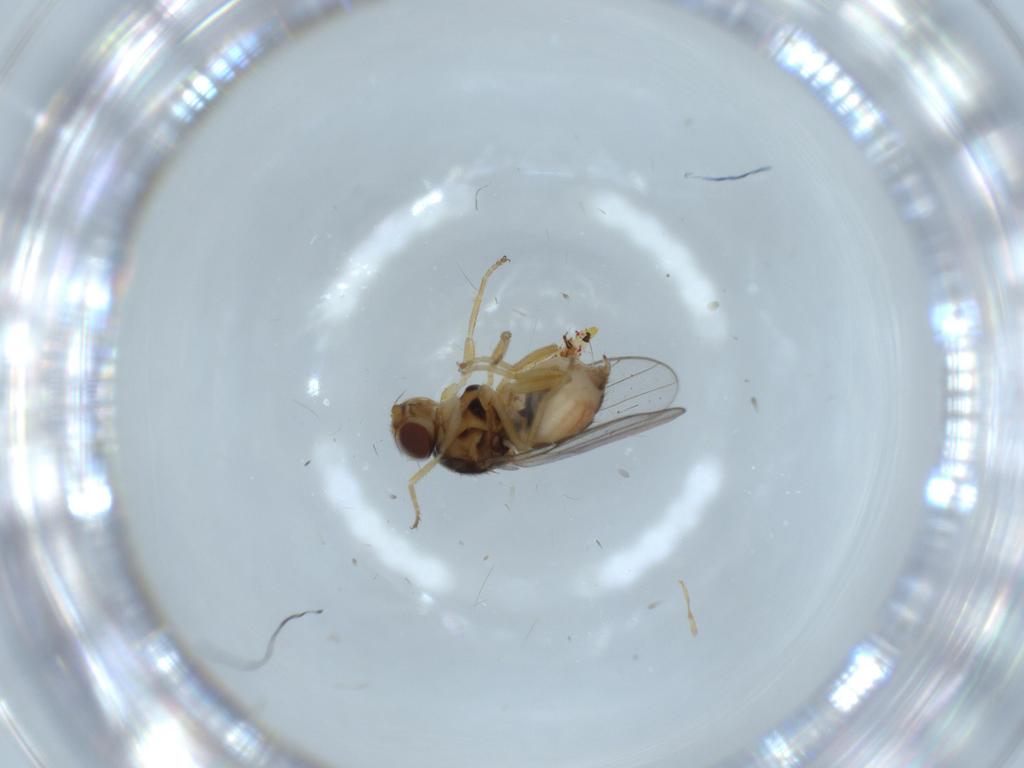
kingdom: Animalia
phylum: Arthropoda
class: Insecta
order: Diptera
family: Chloropidae
